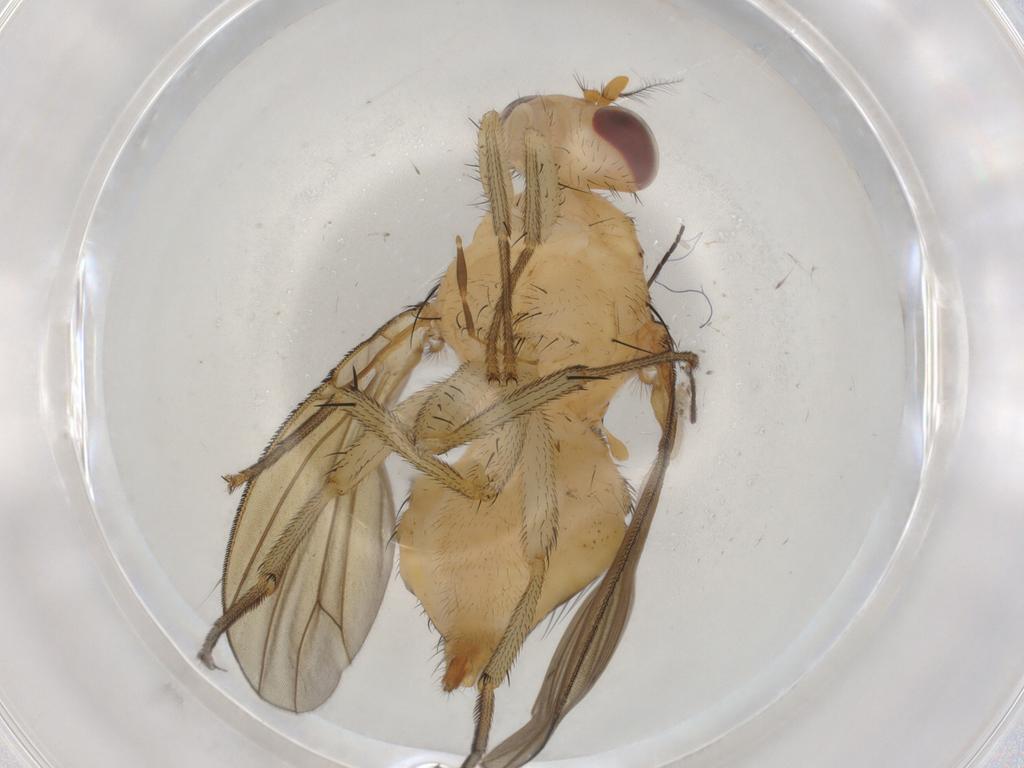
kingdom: Animalia
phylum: Arthropoda
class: Insecta
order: Diptera
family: Sciaridae
